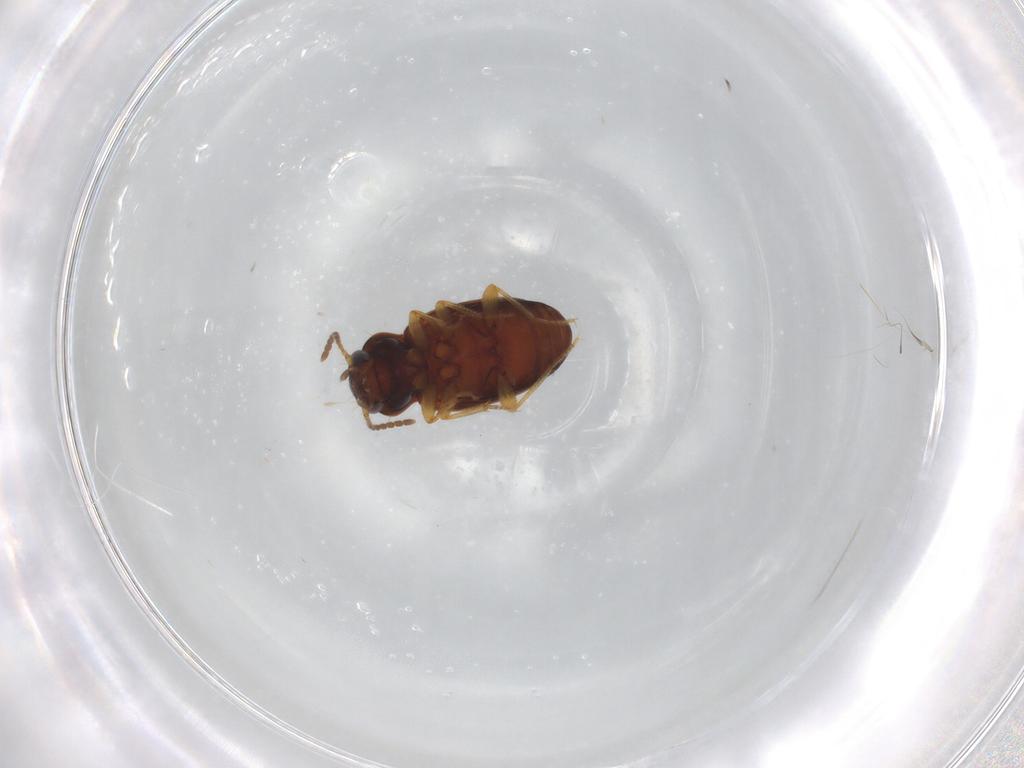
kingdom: Animalia
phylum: Arthropoda
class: Insecta
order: Coleoptera
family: Carabidae
